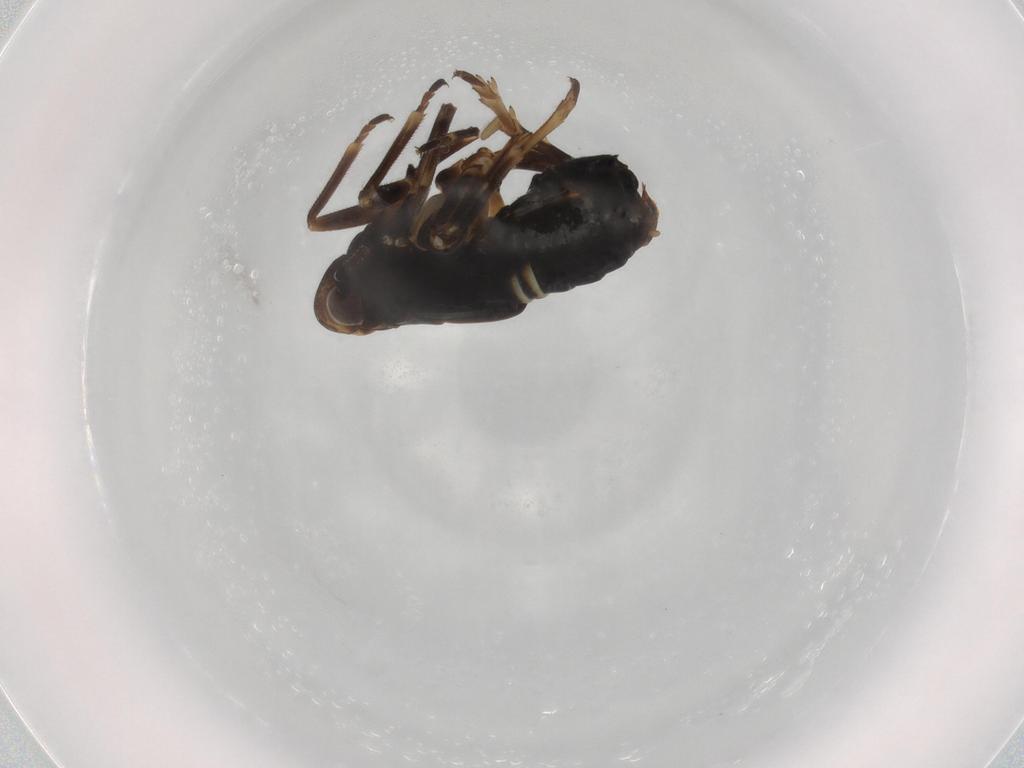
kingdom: Animalia
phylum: Arthropoda
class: Insecta
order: Hemiptera
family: Delphacidae
